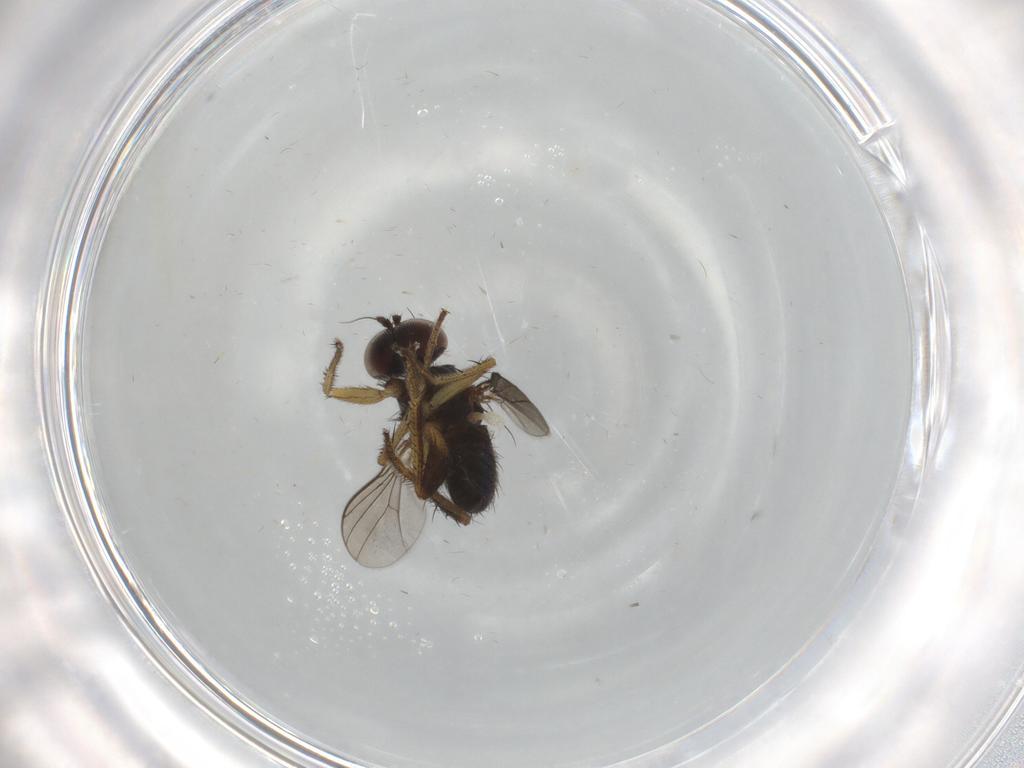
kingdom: Animalia
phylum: Arthropoda
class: Insecta
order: Diptera
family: Dolichopodidae
